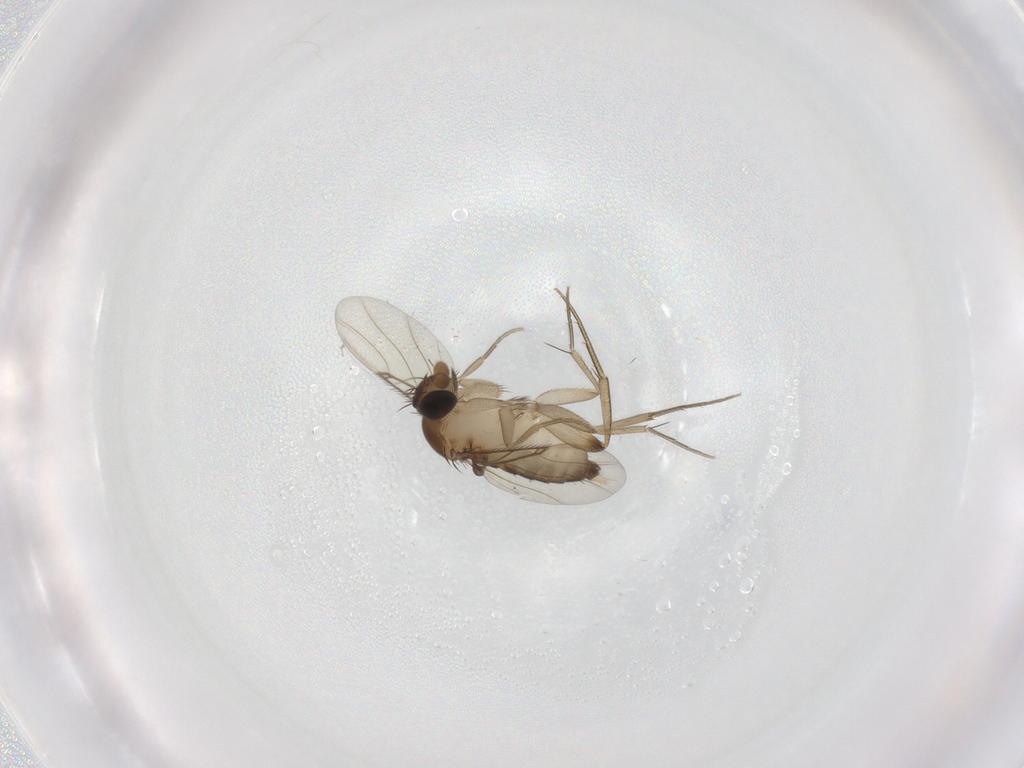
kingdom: Animalia
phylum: Arthropoda
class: Insecta
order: Diptera
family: Phoridae
